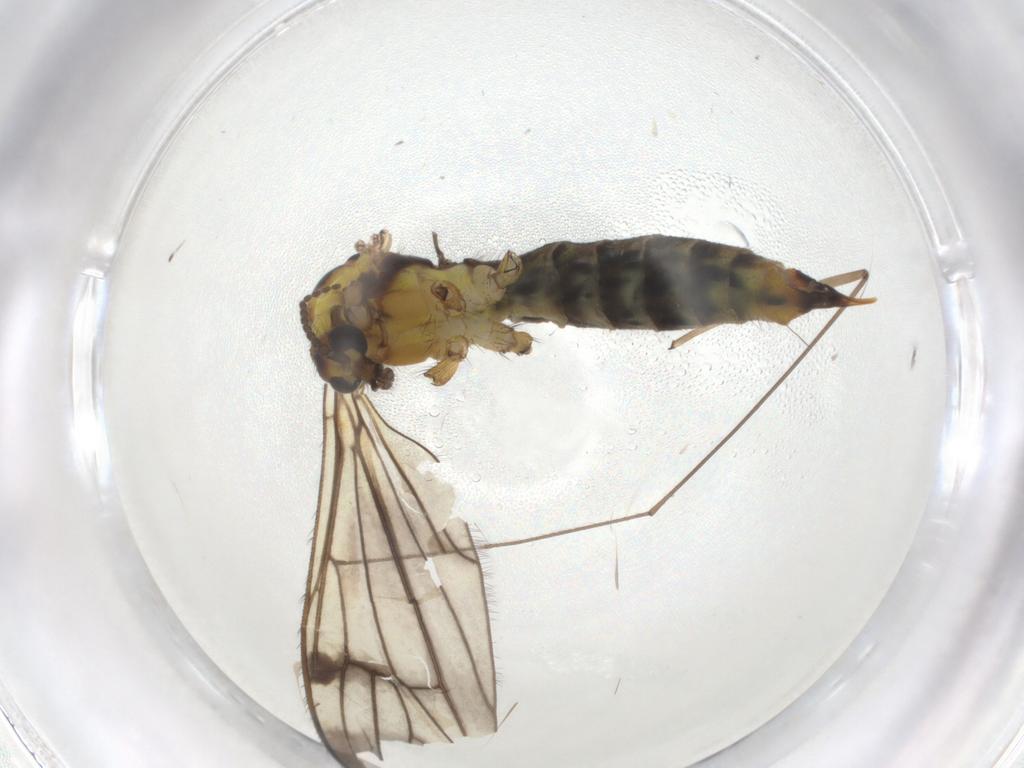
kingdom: Animalia
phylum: Arthropoda
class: Insecta
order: Diptera
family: Limoniidae
